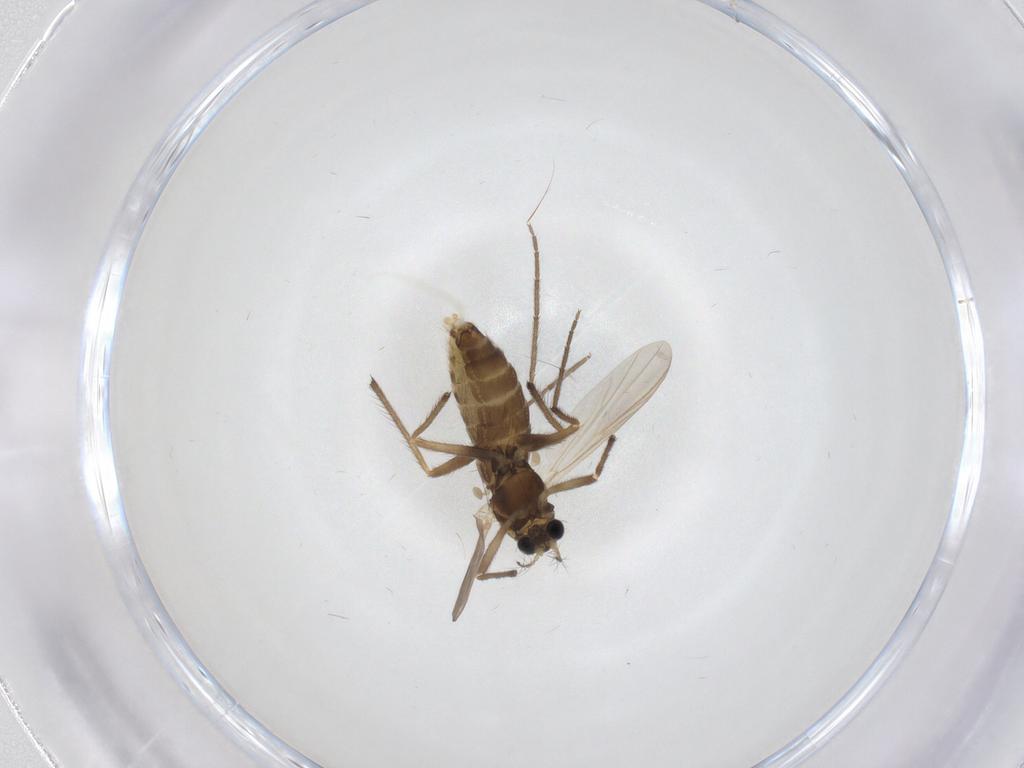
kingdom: Animalia
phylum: Arthropoda
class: Insecta
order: Diptera
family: Chironomidae
